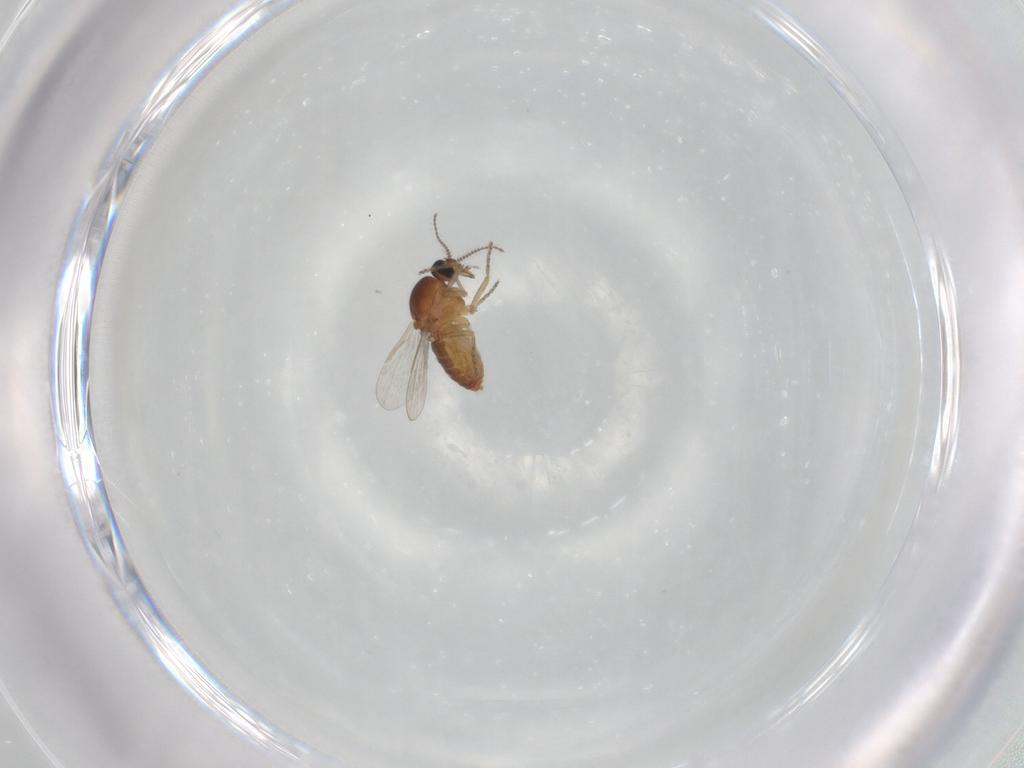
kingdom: Animalia
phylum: Arthropoda
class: Insecta
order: Diptera
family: Ceratopogonidae
